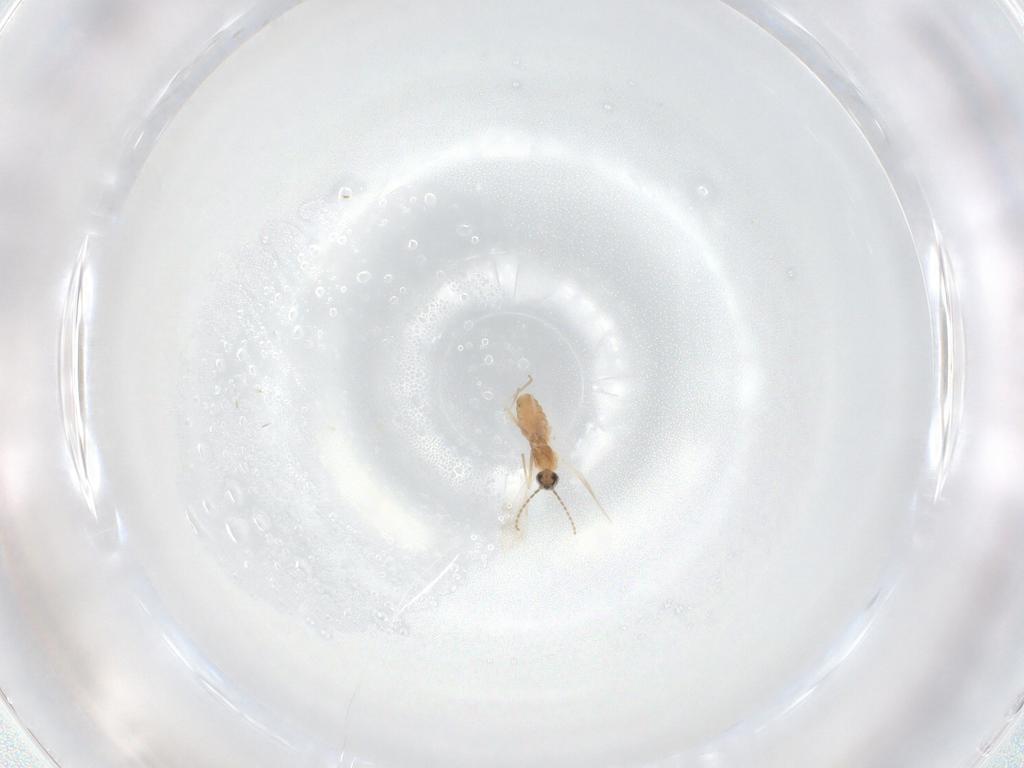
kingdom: Animalia
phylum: Arthropoda
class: Insecta
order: Diptera
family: Cecidomyiidae
